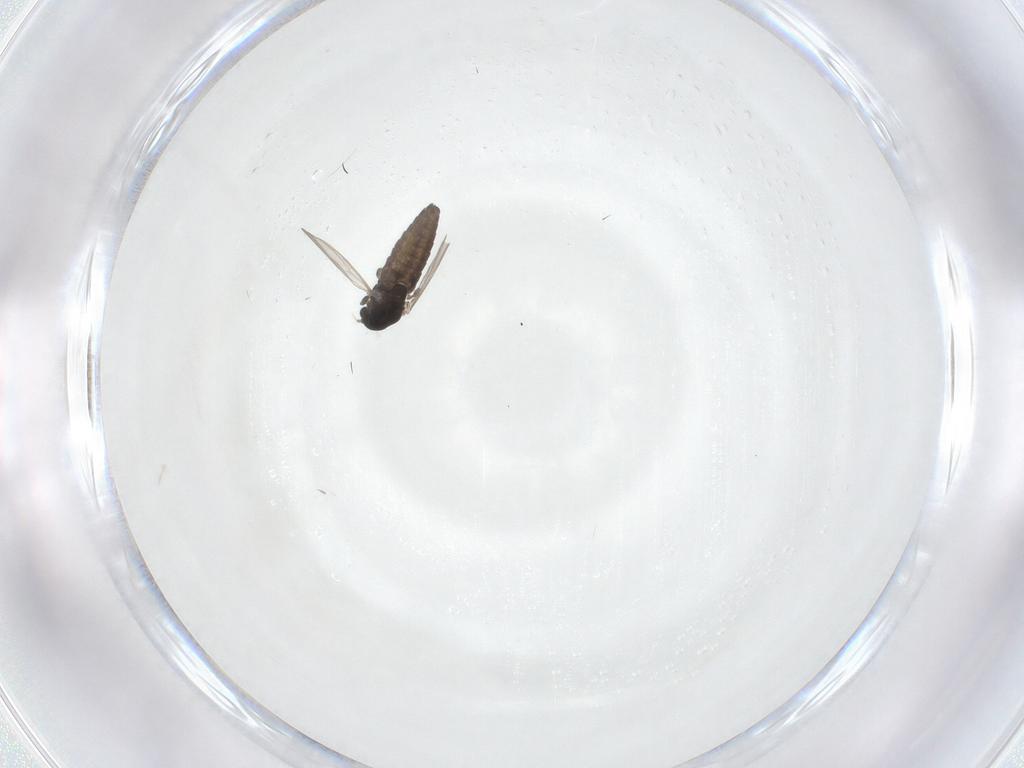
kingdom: Animalia
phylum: Arthropoda
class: Insecta
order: Diptera
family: Chironomidae
